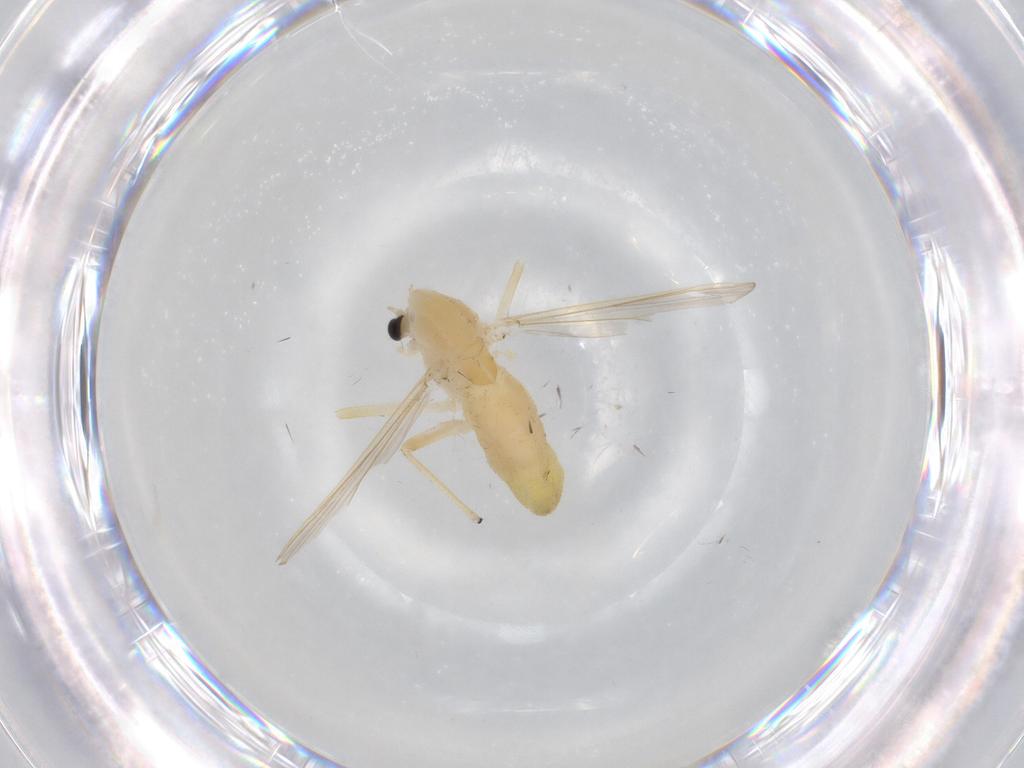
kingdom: Animalia
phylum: Arthropoda
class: Insecta
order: Diptera
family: Chironomidae
